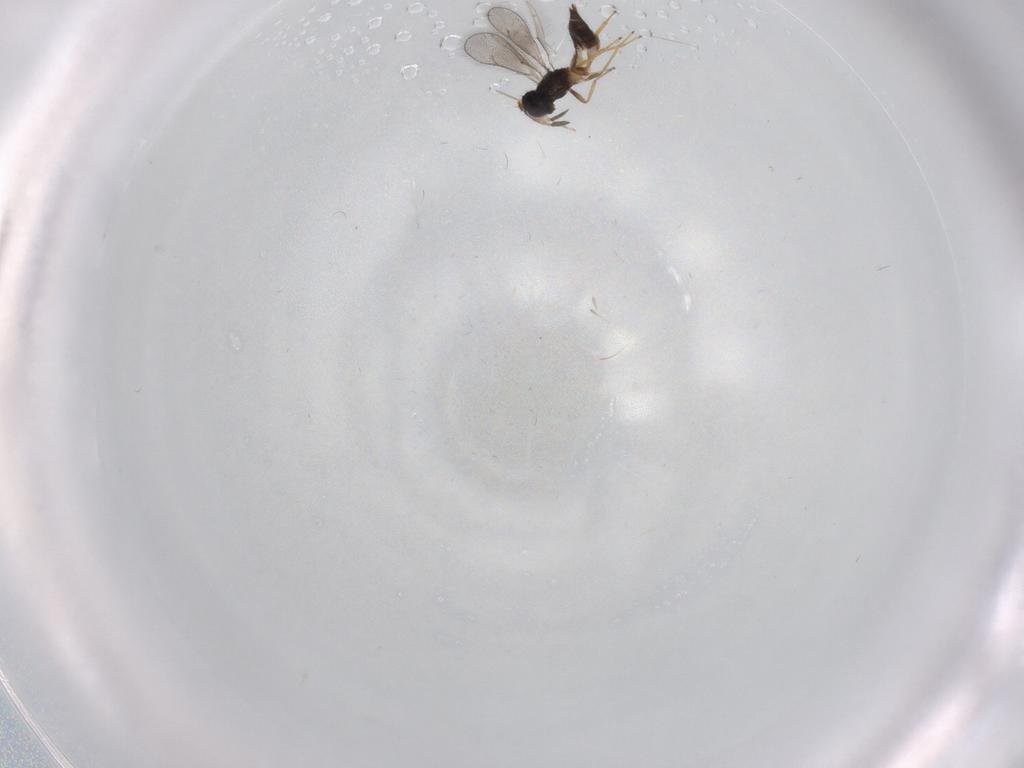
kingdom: Animalia
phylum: Arthropoda
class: Insecta
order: Hymenoptera
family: Eulophidae
